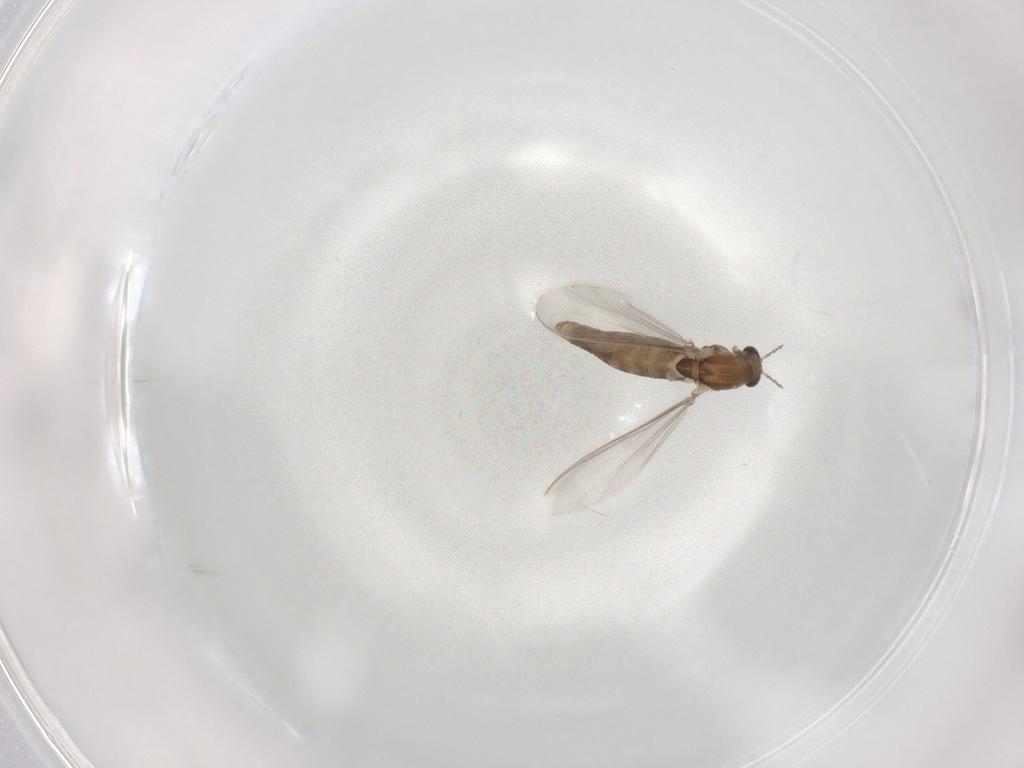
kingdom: Animalia
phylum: Arthropoda
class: Insecta
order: Diptera
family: Chironomidae
